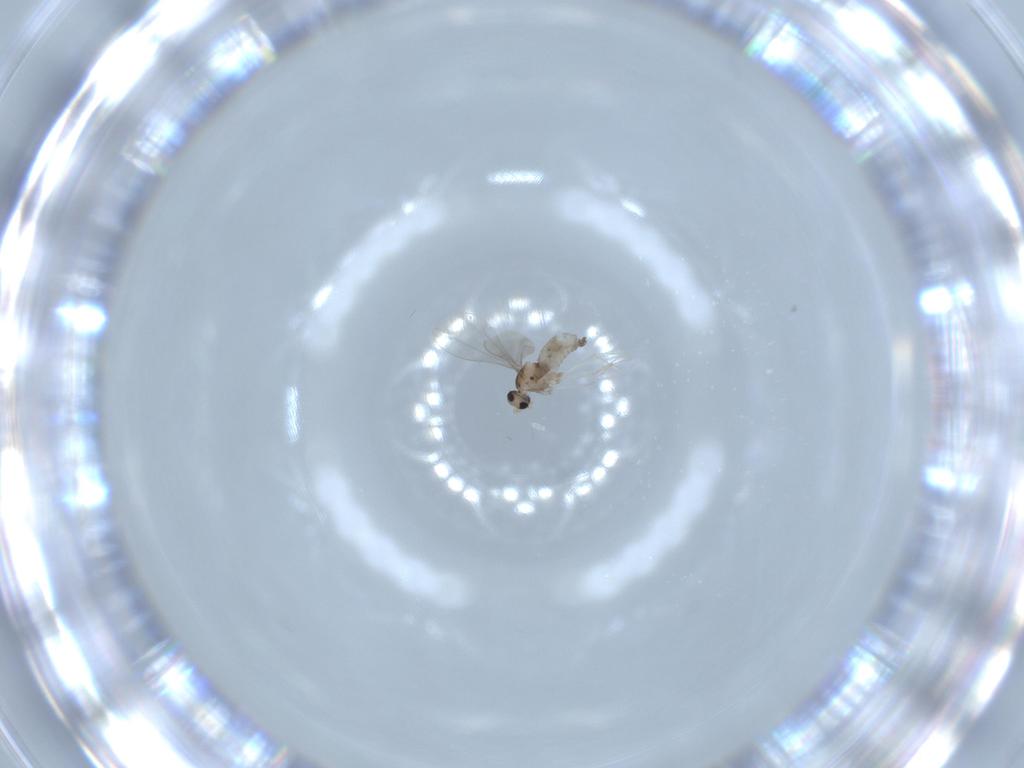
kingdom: Animalia
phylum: Arthropoda
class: Insecta
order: Diptera
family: Cecidomyiidae
